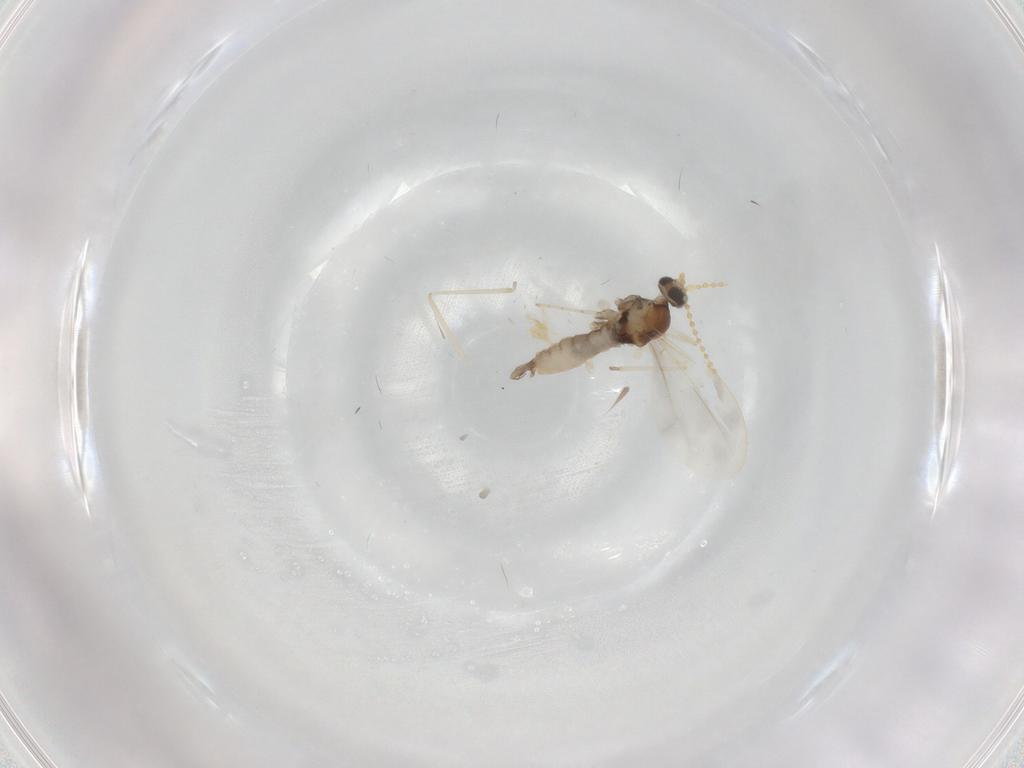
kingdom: Animalia
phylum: Arthropoda
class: Insecta
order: Diptera
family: Cecidomyiidae
